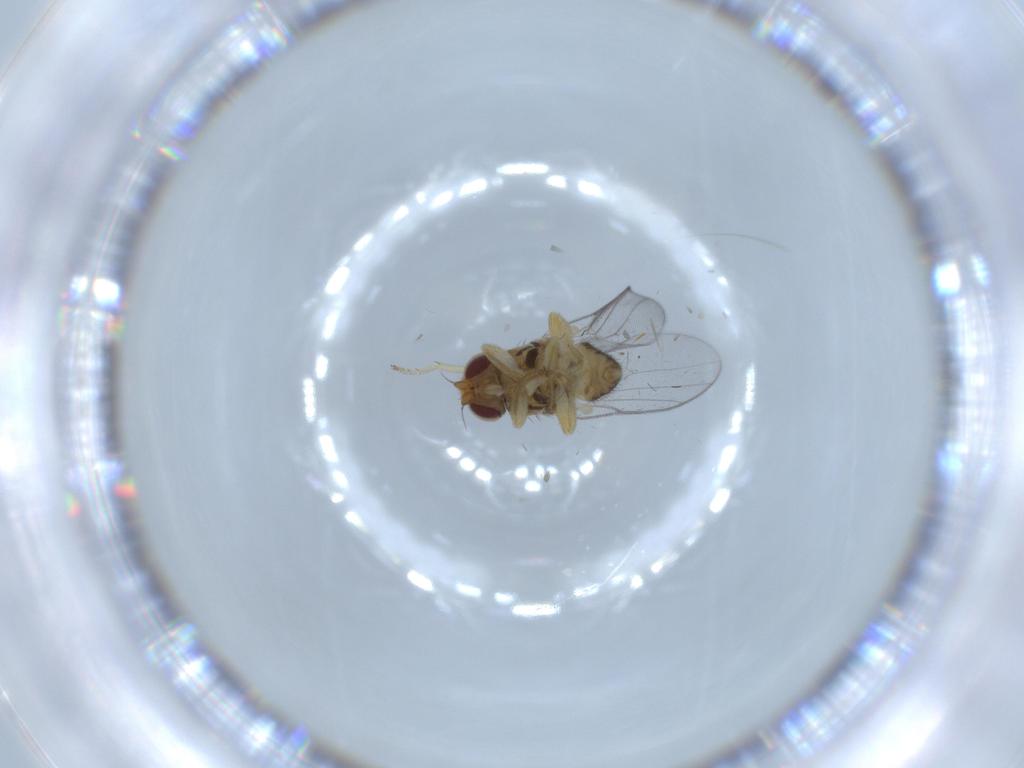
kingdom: Animalia
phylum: Arthropoda
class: Insecta
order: Diptera
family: Chloropidae
